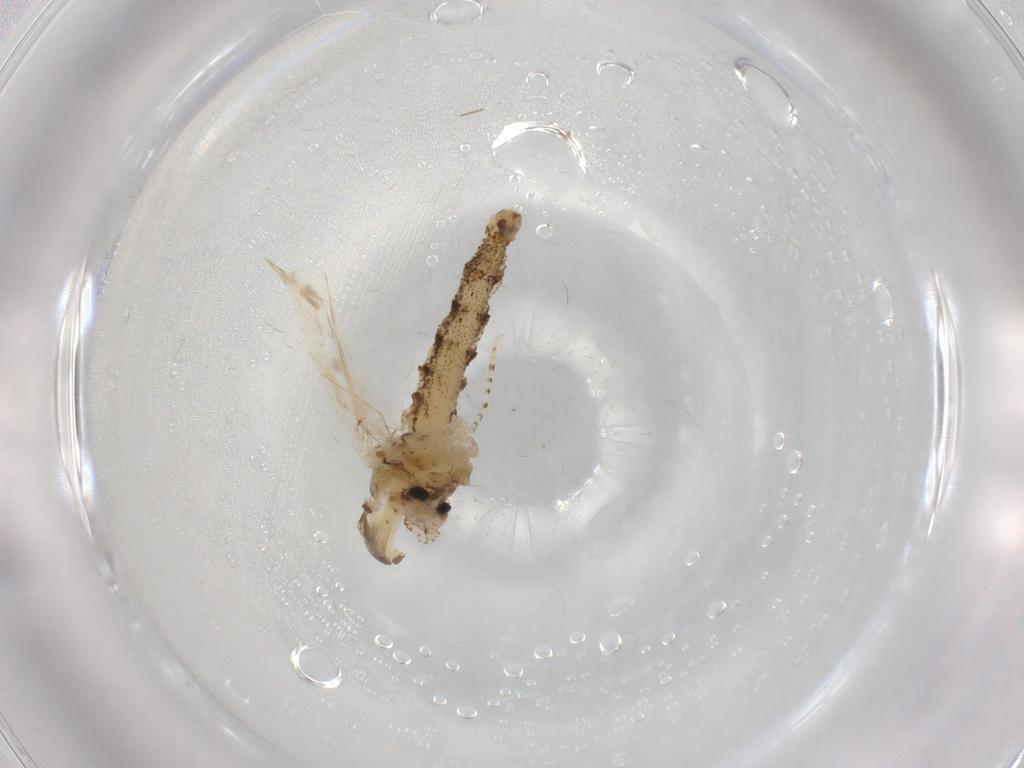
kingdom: Animalia
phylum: Arthropoda
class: Insecta
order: Diptera
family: Chaoboridae
